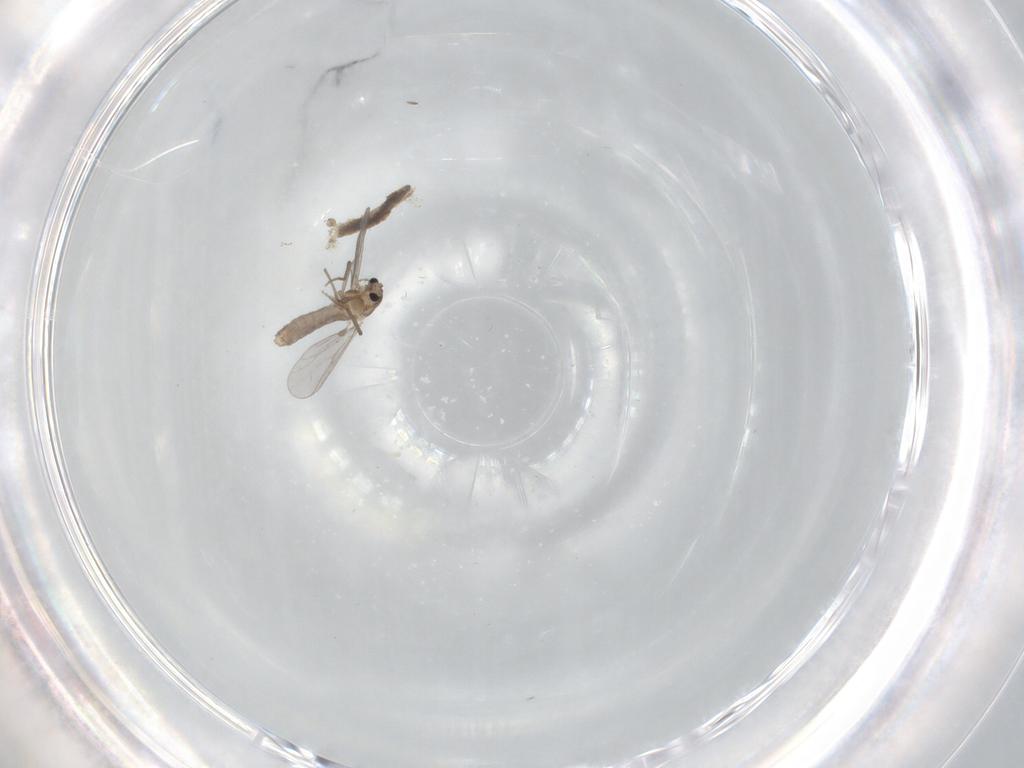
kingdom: Animalia
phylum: Arthropoda
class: Insecta
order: Diptera
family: Chironomidae
